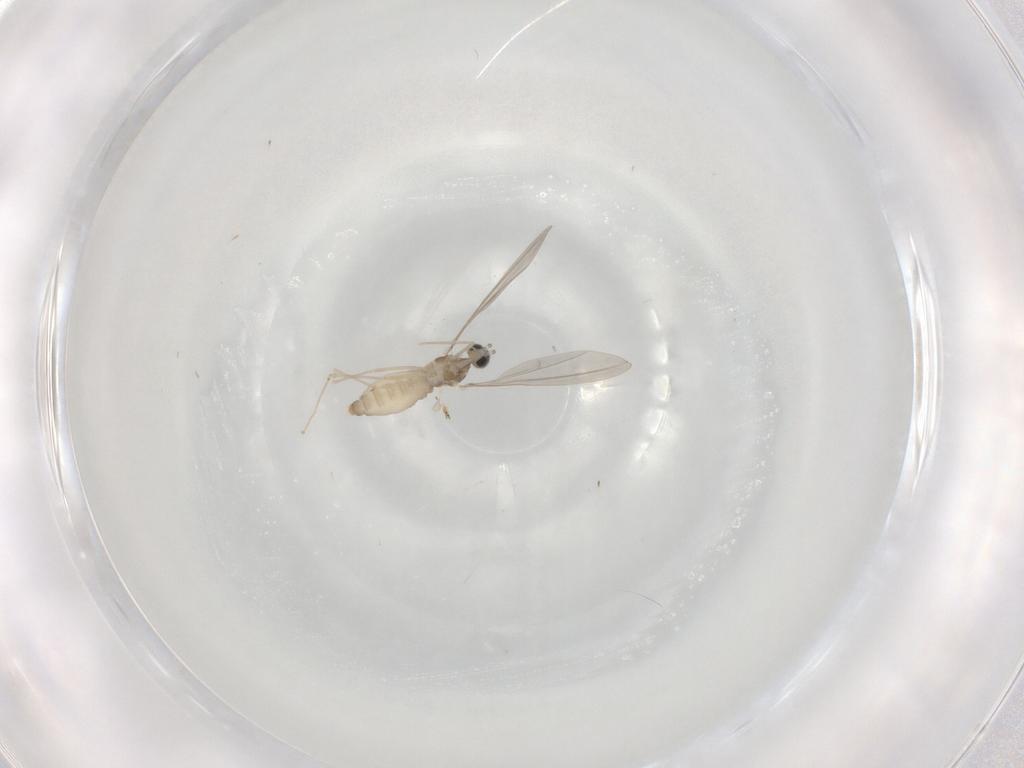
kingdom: Animalia
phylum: Arthropoda
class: Insecta
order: Diptera
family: Cecidomyiidae
